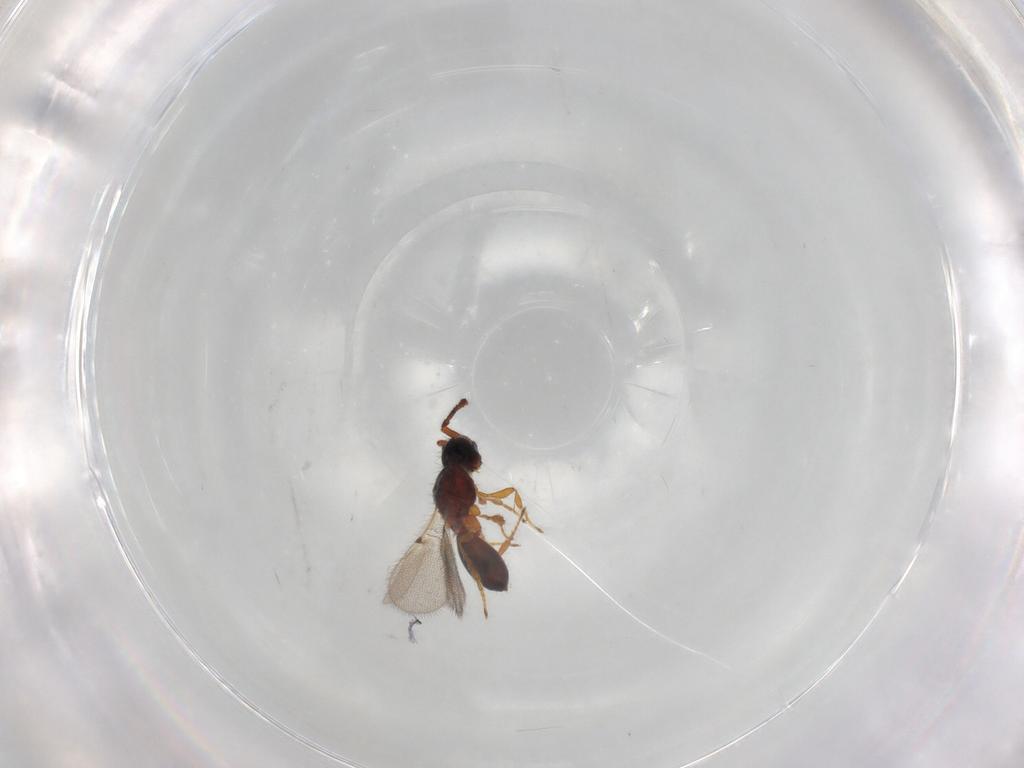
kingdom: Animalia
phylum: Arthropoda
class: Insecta
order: Hymenoptera
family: Diapriidae
